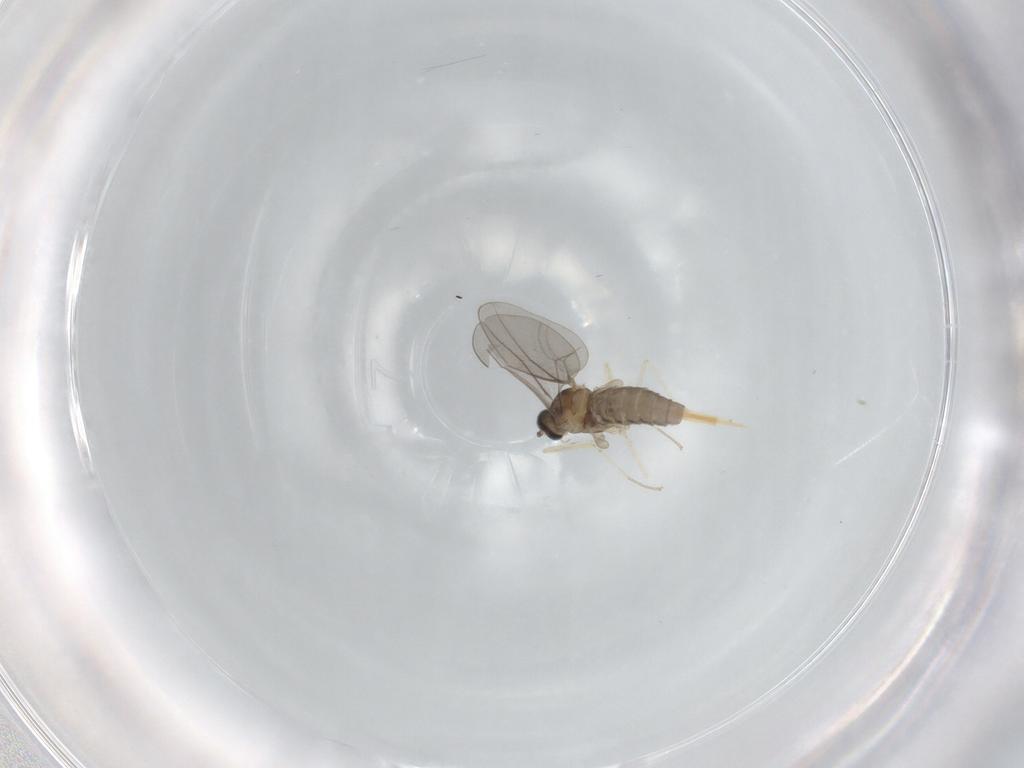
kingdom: Animalia
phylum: Arthropoda
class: Insecta
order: Diptera
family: Cecidomyiidae
